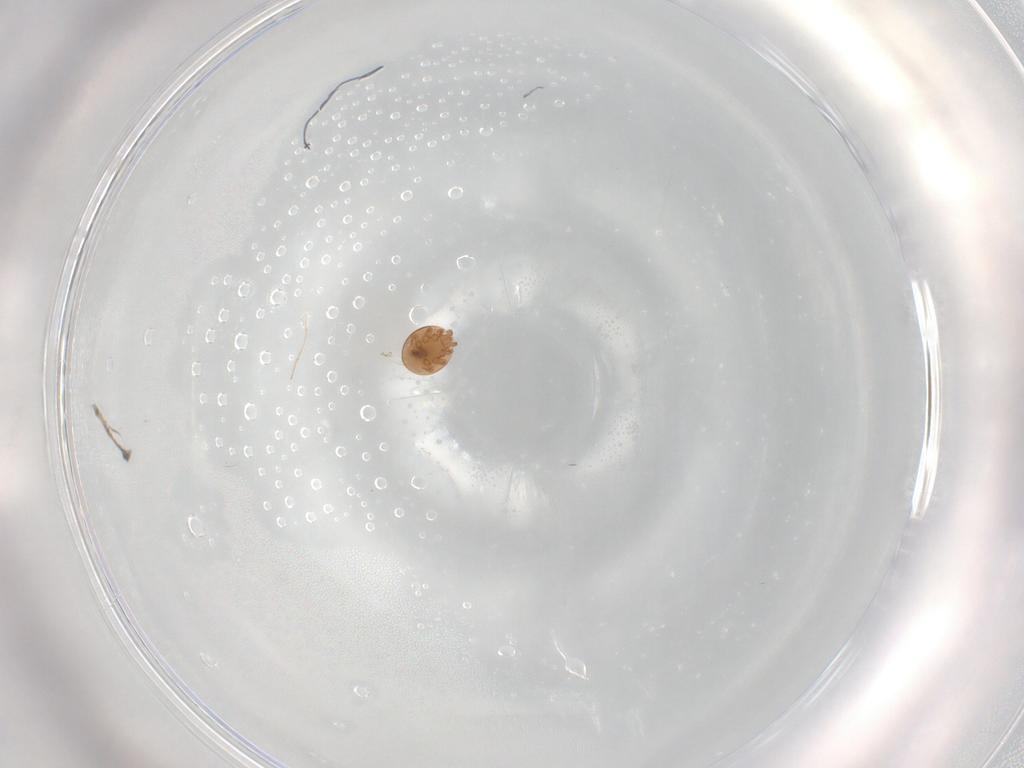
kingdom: Animalia
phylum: Arthropoda
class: Arachnida
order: Mesostigmata
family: Trematuridae
